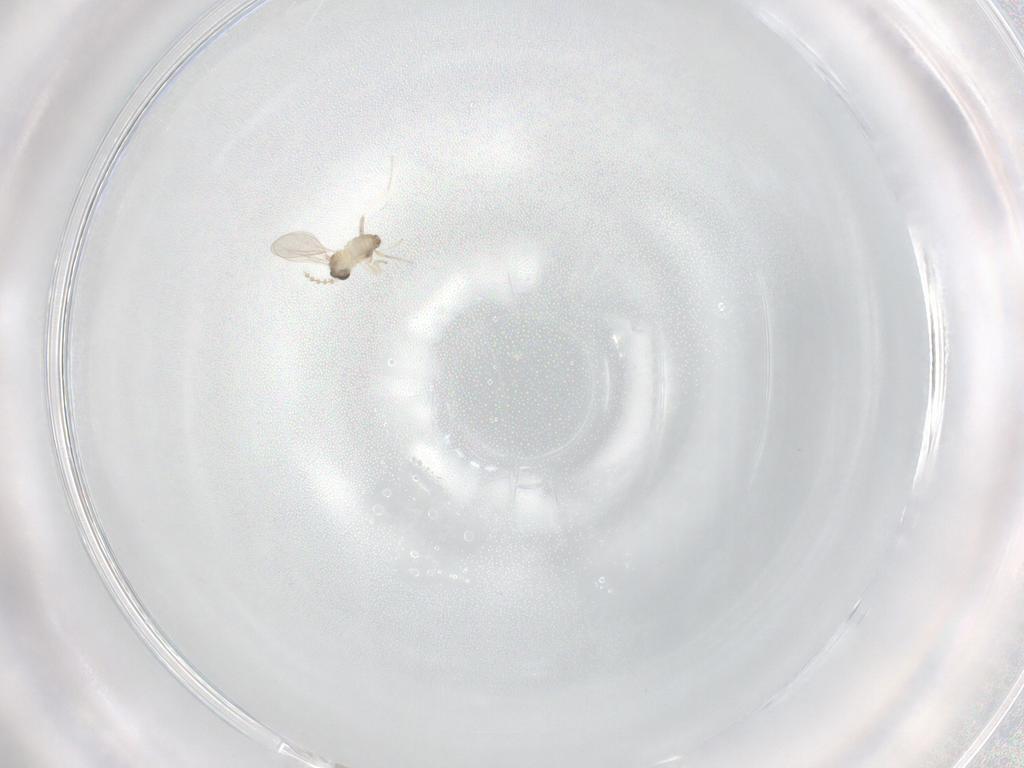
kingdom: Animalia
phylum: Arthropoda
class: Insecta
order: Diptera
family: Cecidomyiidae
